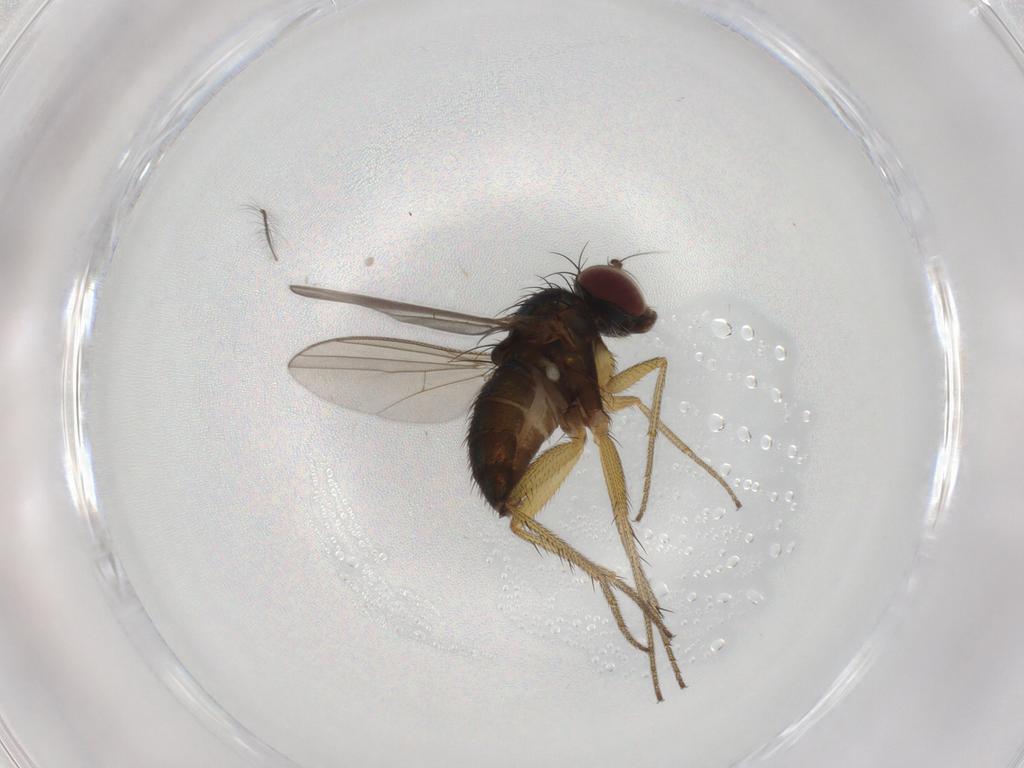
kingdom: Animalia
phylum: Arthropoda
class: Insecta
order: Diptera
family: Dolichopodidae
